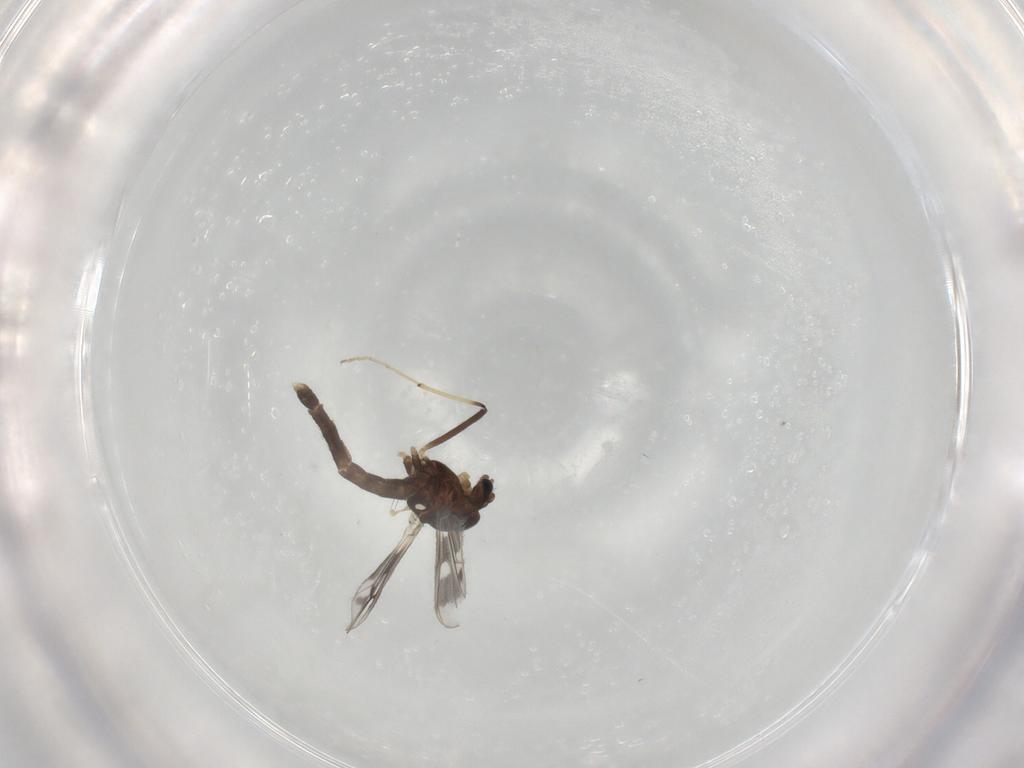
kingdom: Animalia
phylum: Arthropoda
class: Insecta
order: Diptera
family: Chironomidae
